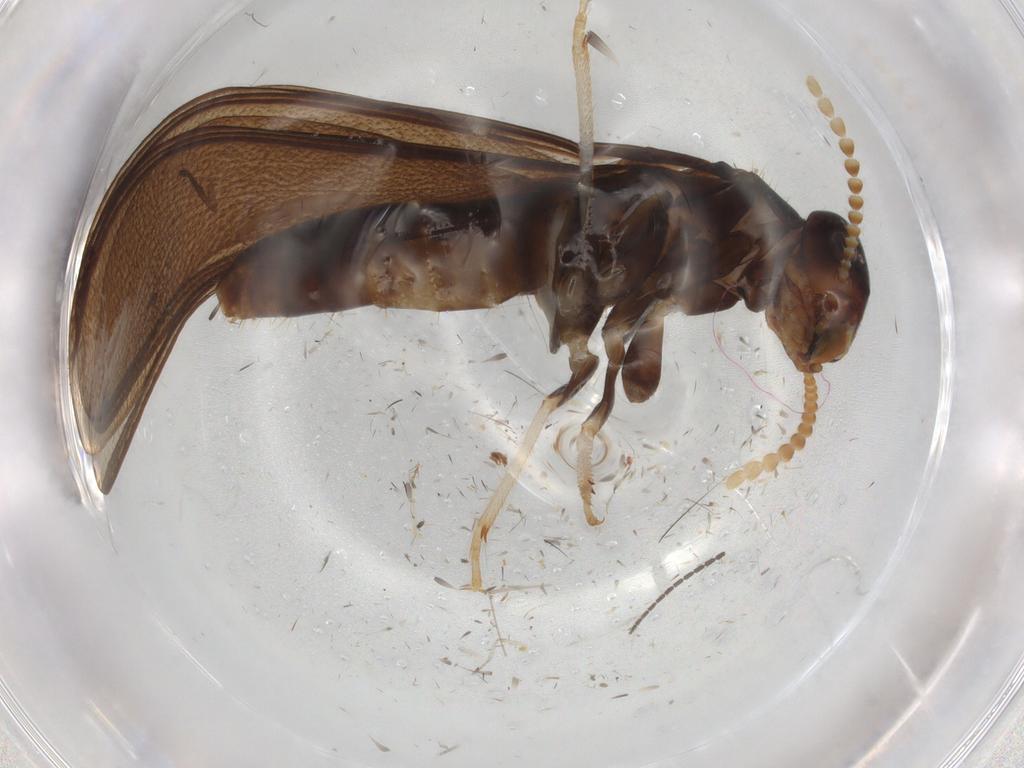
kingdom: Animalia
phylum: Arthropoda
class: Insecta
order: Blattodea
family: Kalotermitidae
